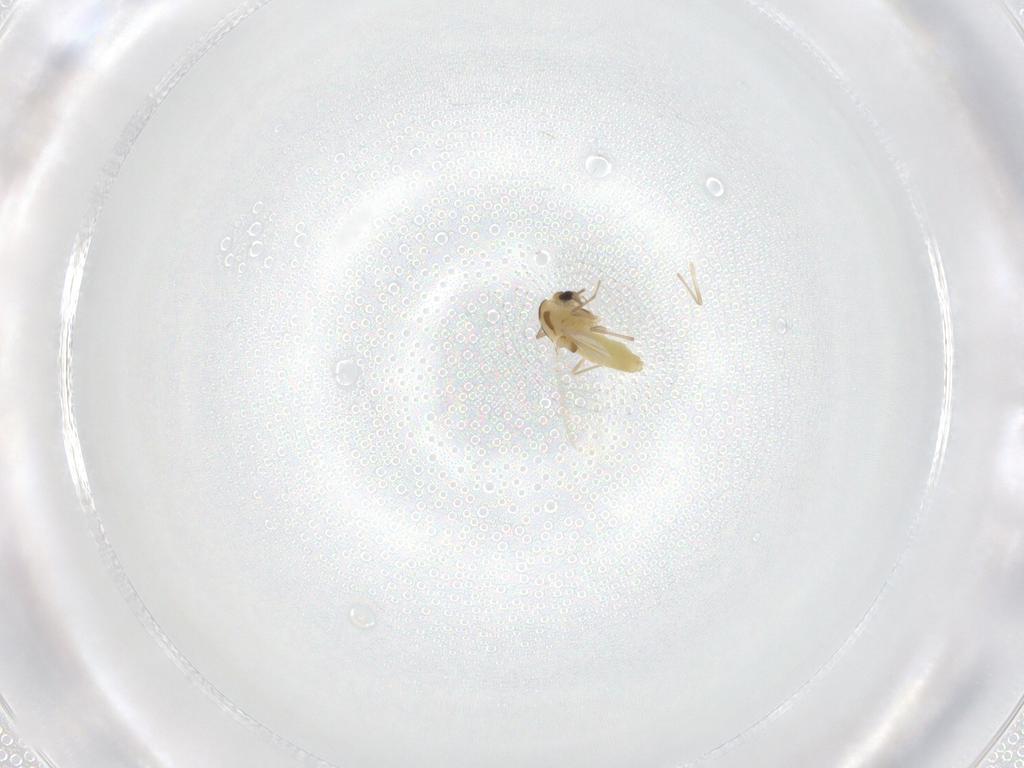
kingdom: Animalia
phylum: Arthropoda
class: Insecta
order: Diptera
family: Chironomidae
